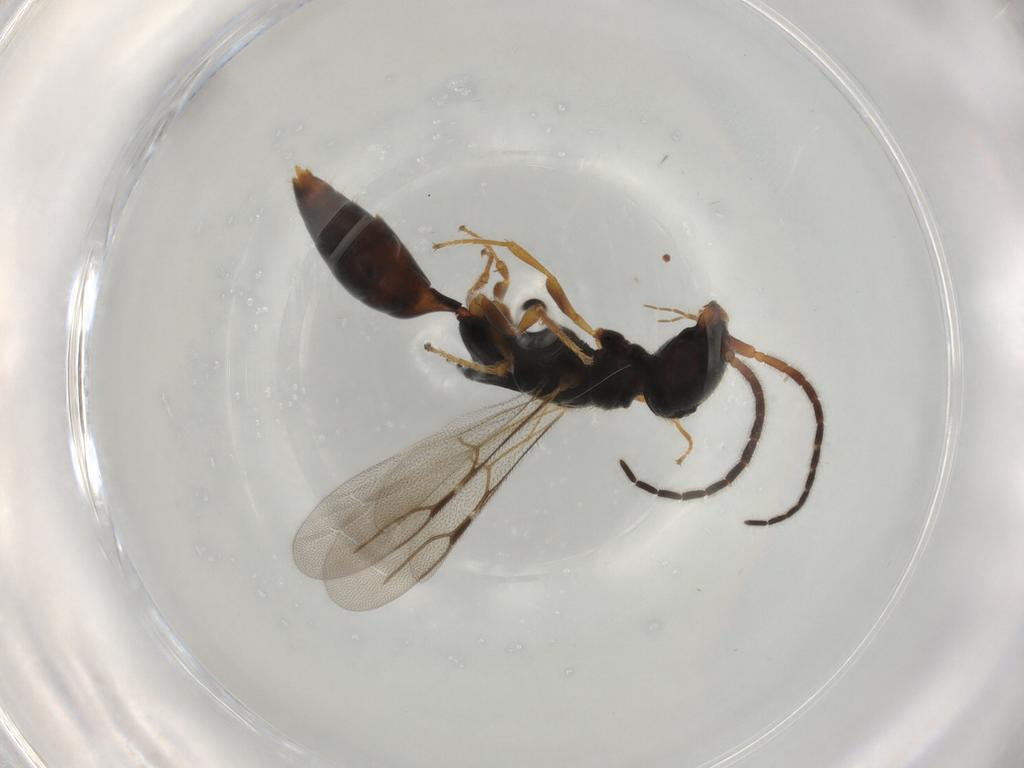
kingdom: Animalia
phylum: Arthropoda
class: Insecta
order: Hymenoptera
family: Bethylidae
